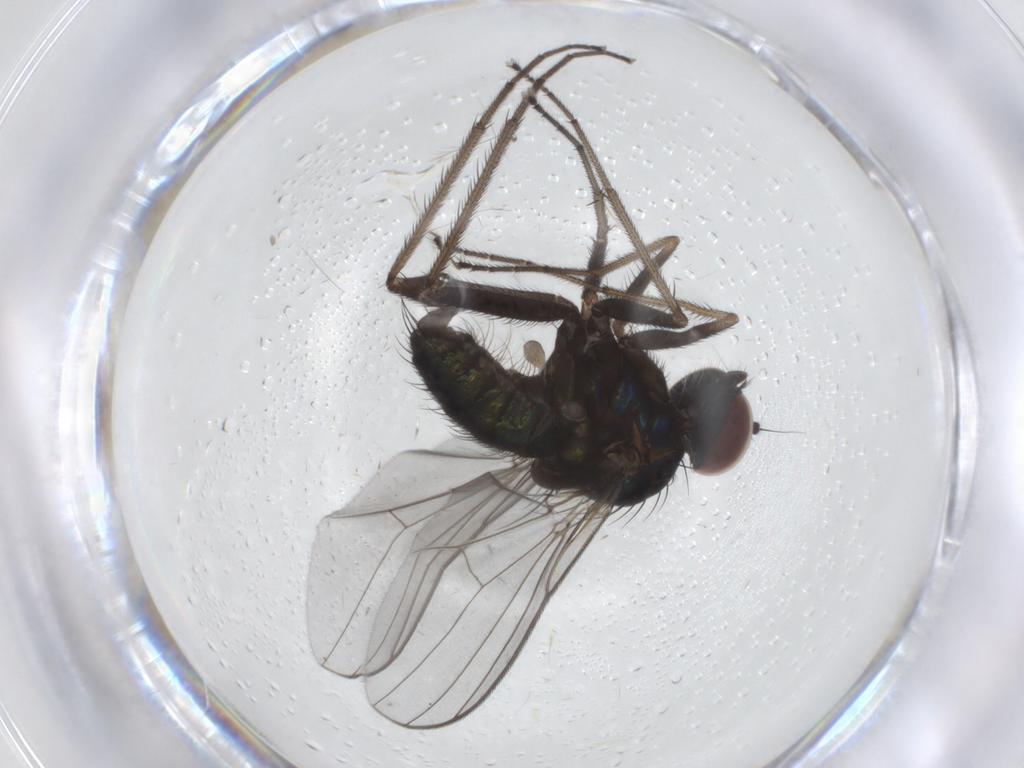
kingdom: Animalia
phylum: Arthropoda
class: Insecta
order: Diptera
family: Dolichopodidae
